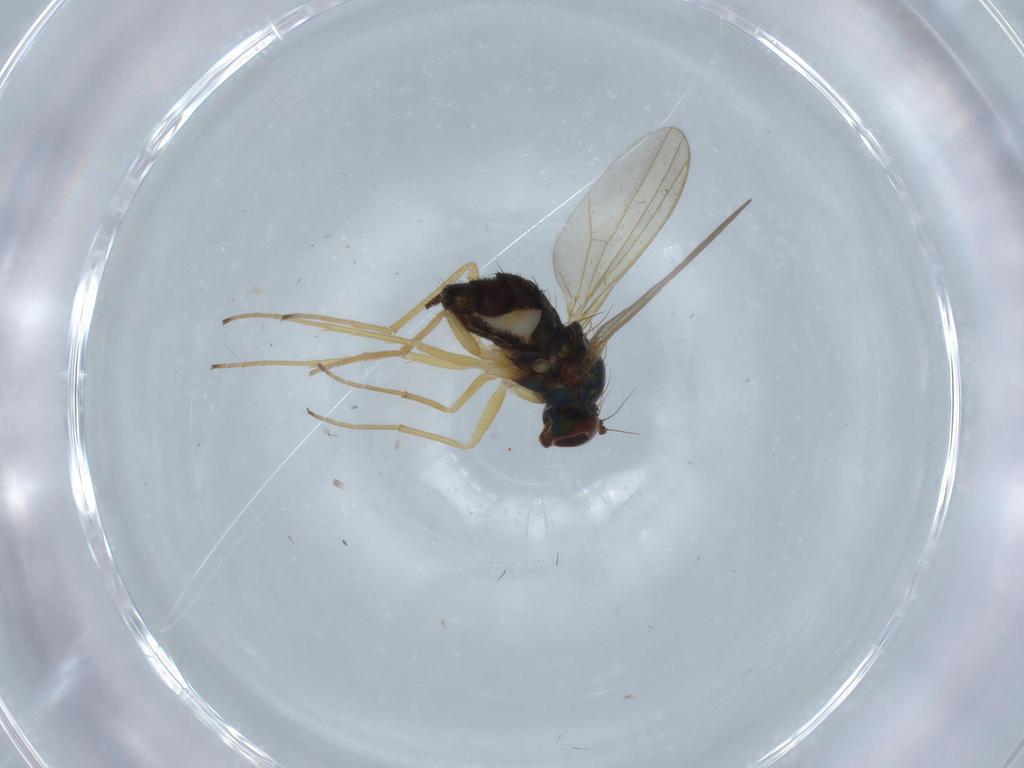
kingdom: Animalia
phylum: Arthropoda
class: Insecta
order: Diptera
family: Dolichopodidae
